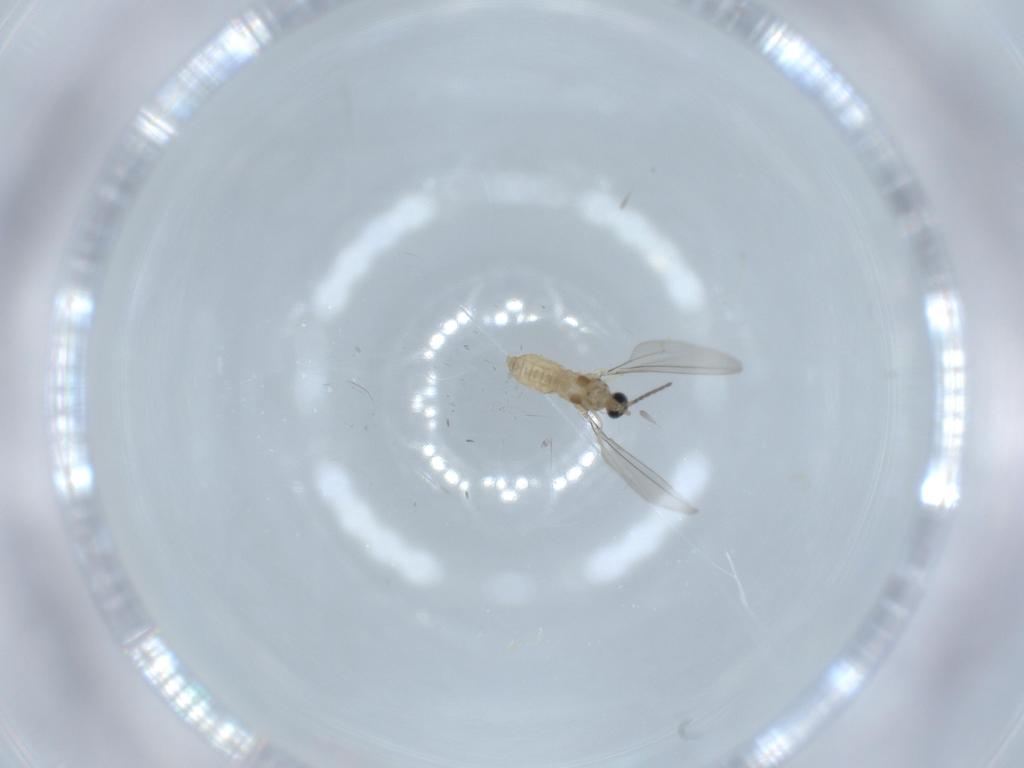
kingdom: Animalia
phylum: Arthropoda
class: Insecta
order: Diptera
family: Cecidomyiidae
